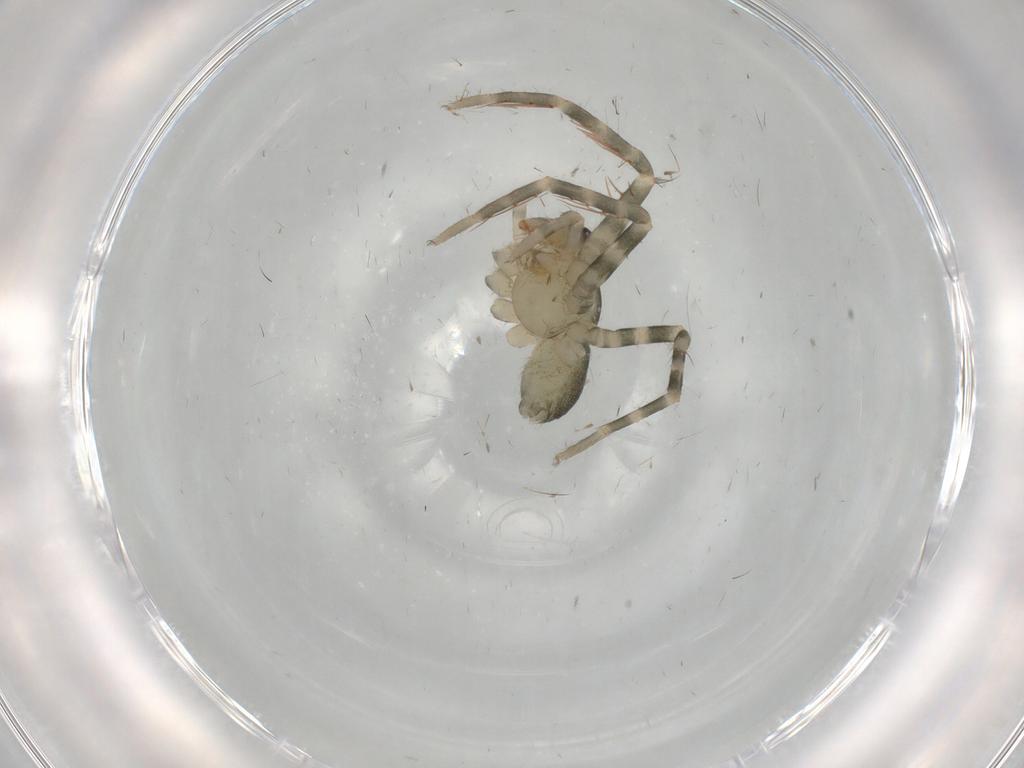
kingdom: Animalia
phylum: Arthropoda
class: Arachnida
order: Araneae
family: Ctenidae
